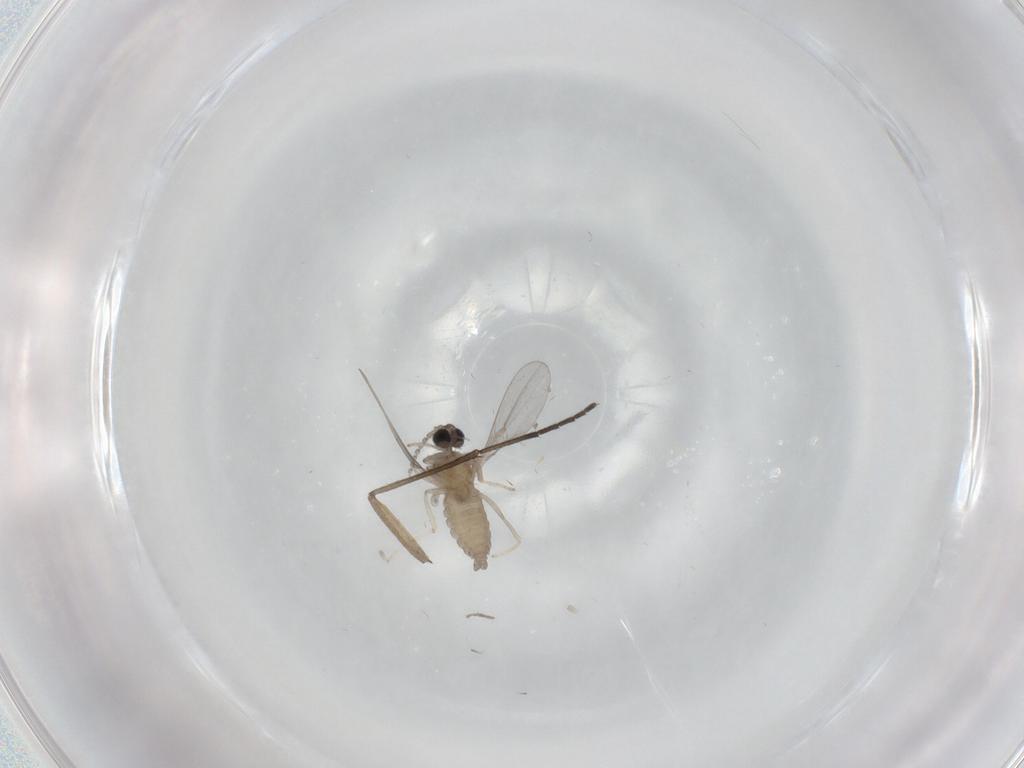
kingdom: Animalia
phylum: Arthropoda
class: Insecta
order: Diptera
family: Cecidomyiidae
